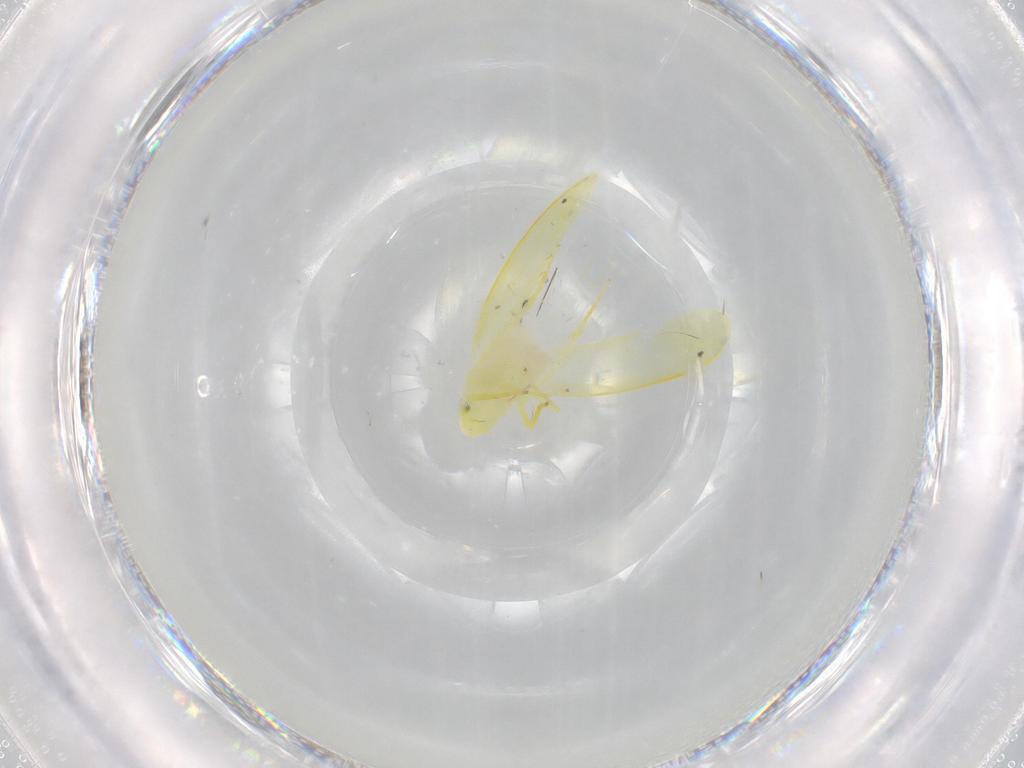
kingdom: Animalia
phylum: Arthropoda
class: Insecta
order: Hemiptera
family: Cicadellidae
